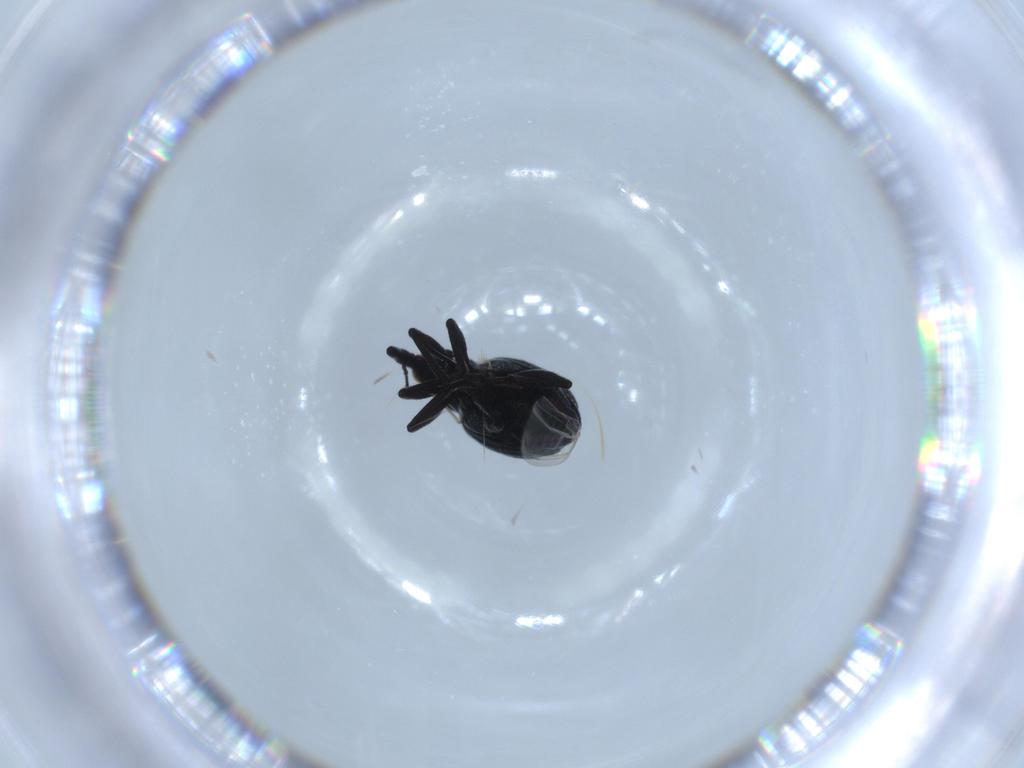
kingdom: Animalia
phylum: Arthropoda
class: Insecta
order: Coleoptera
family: Brentidae
